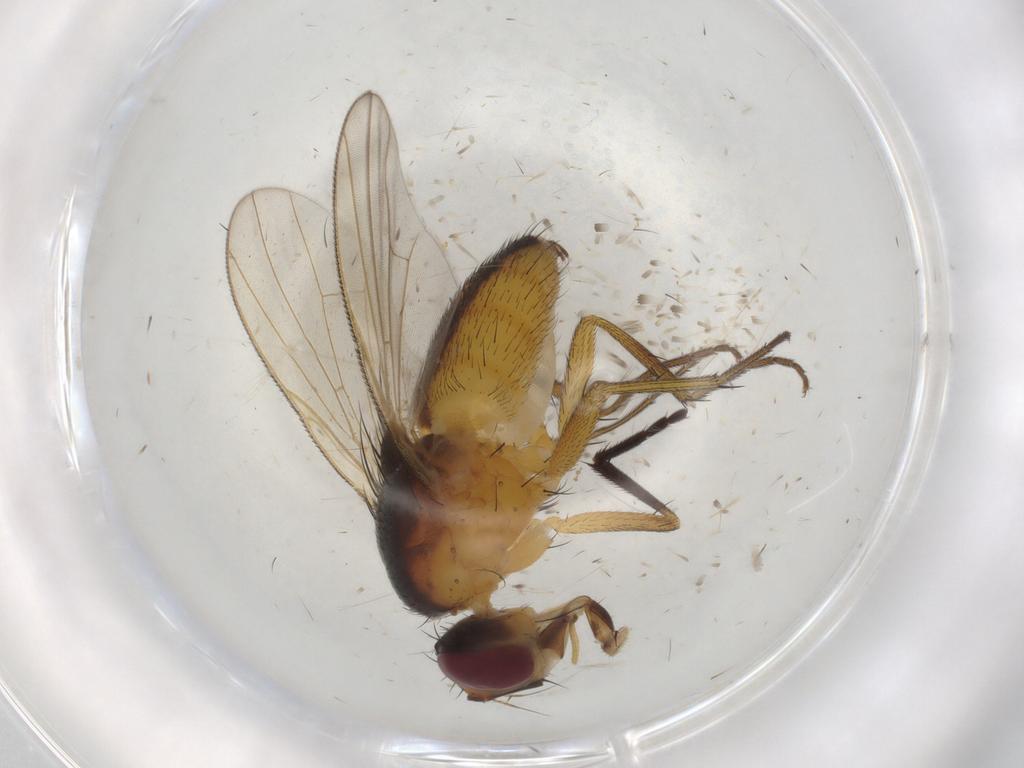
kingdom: Animalia
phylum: Arthropoda
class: Insecta
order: Diptera
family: Muscidae
